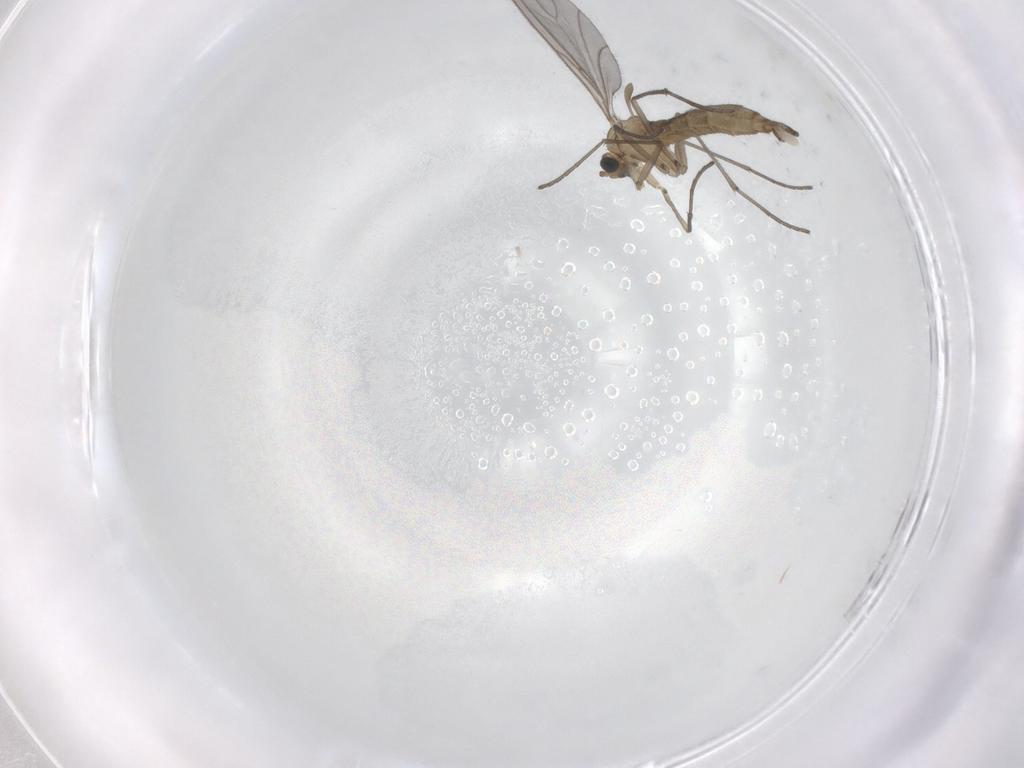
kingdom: Animalia
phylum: Arthropoda
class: Insecta
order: Diptera
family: Sciaridae
